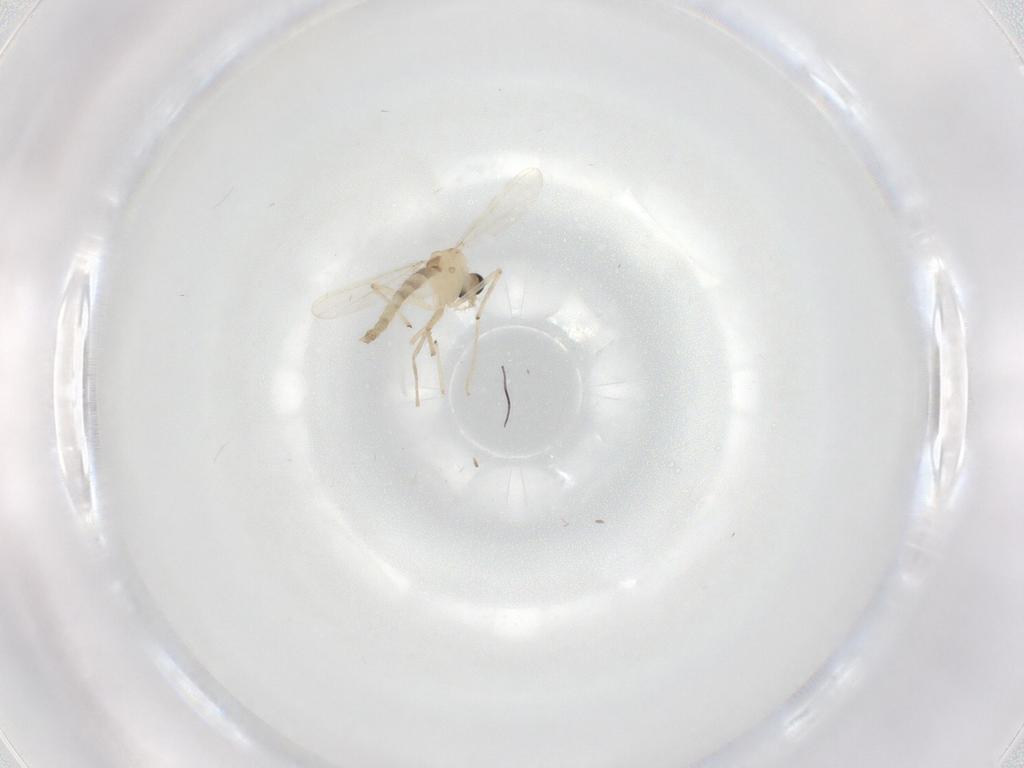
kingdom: Animalia
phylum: Arthropoda
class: Insecta
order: Diptera
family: Chironomidae
